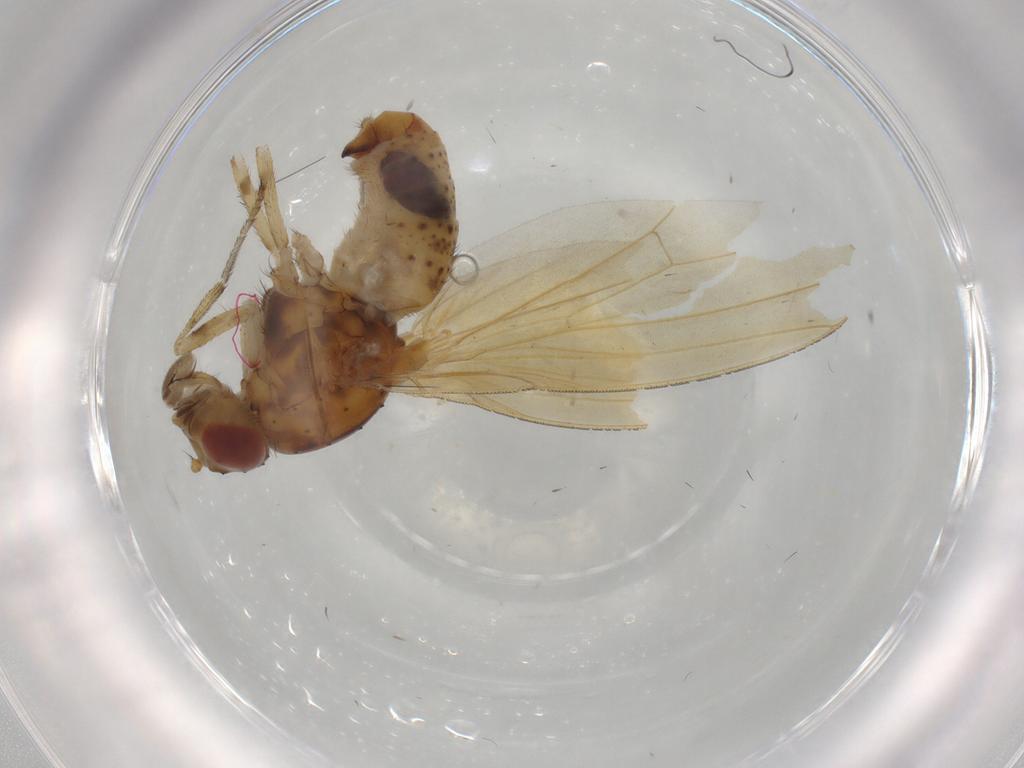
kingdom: Animalia
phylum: Arthropoda
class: Insecta
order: Diptera
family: Lauxaniidae
